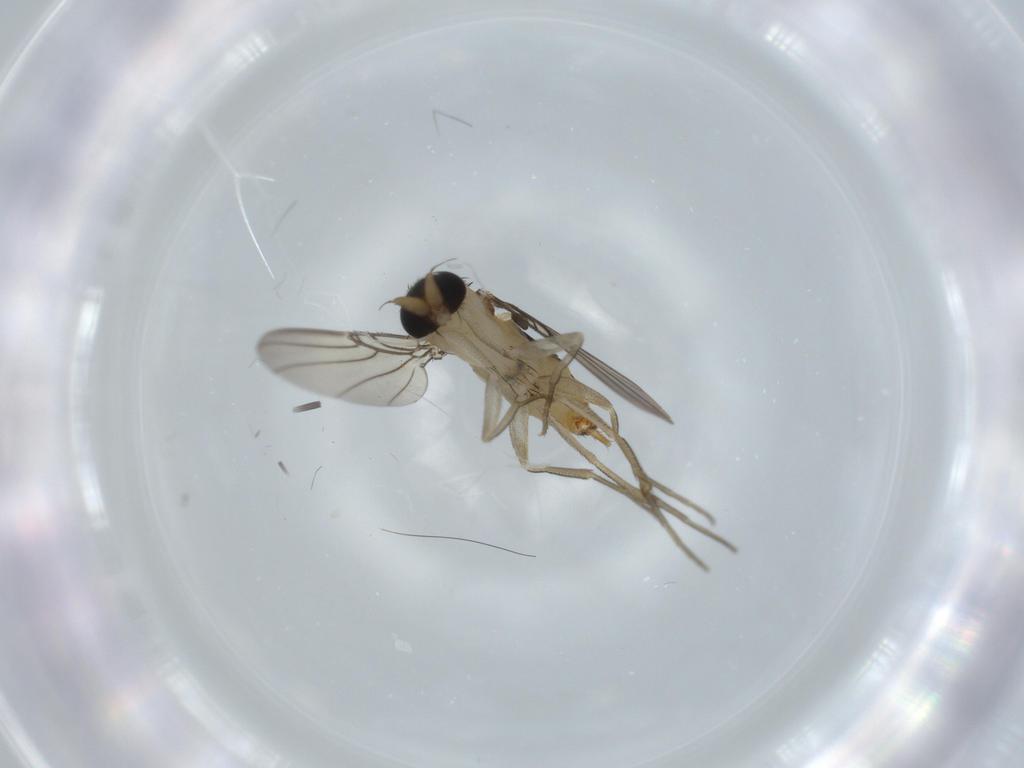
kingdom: Animalia
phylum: Arthropoda
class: Insecta
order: Diptera
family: Phoridae
